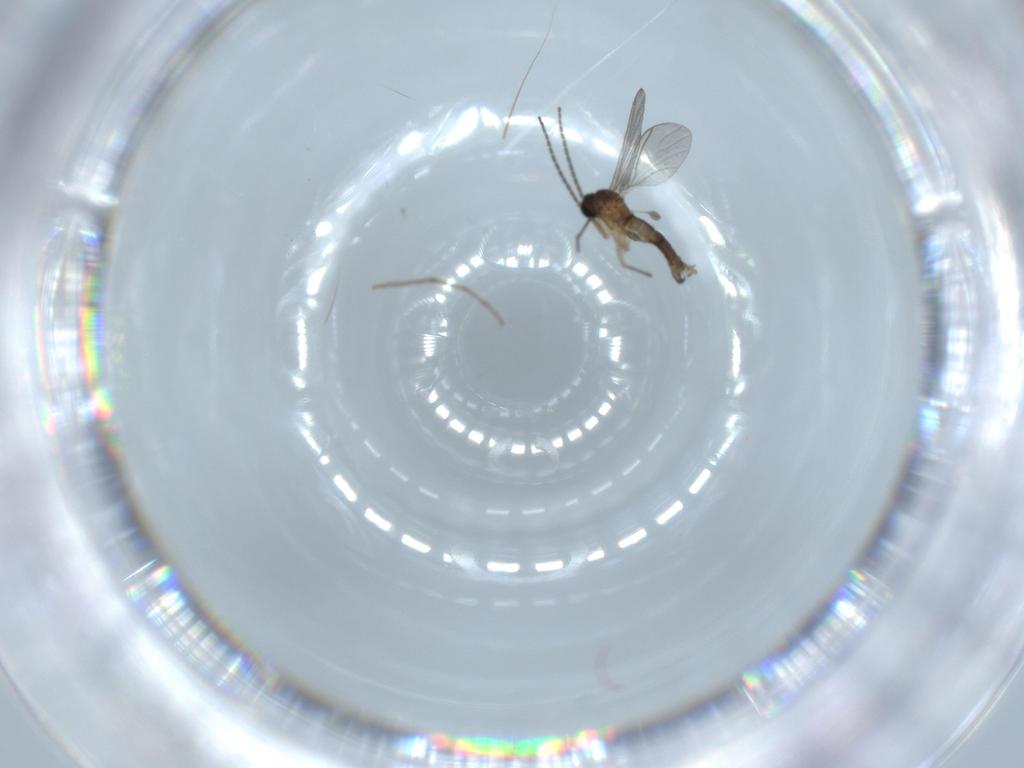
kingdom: Animalia
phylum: Arthropoda
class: Insecta
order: Diptera
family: Sciaridae
